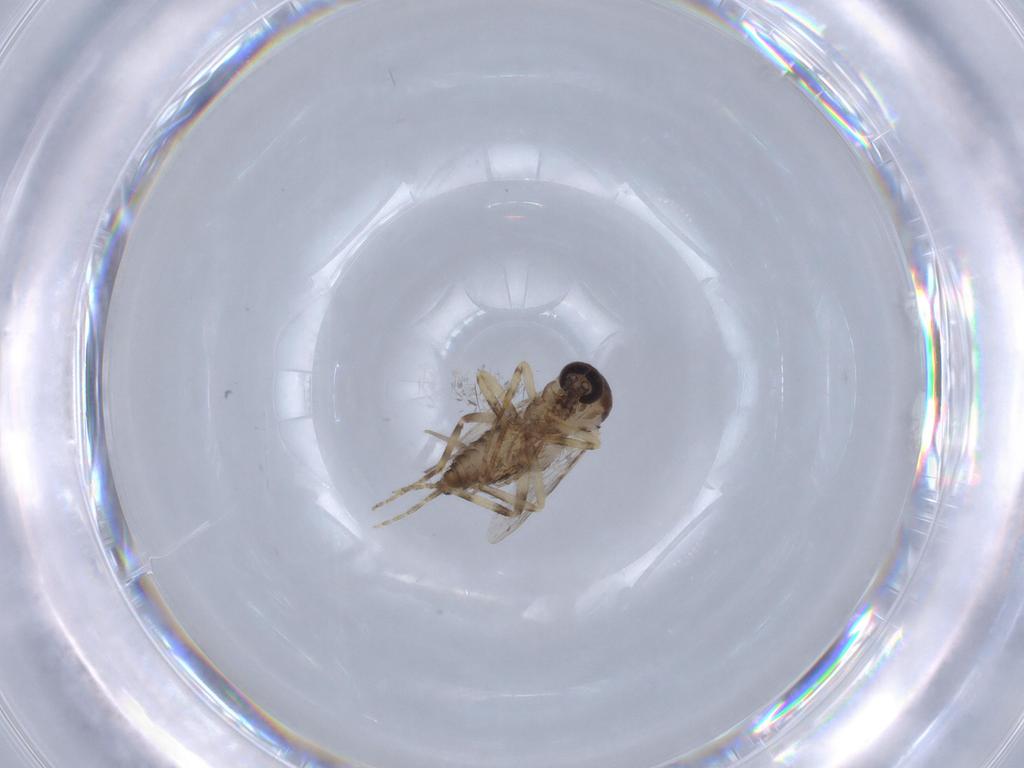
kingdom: Animalia
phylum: Arthropoda
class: Insecta
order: Diptera
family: Ceratopogonidae
